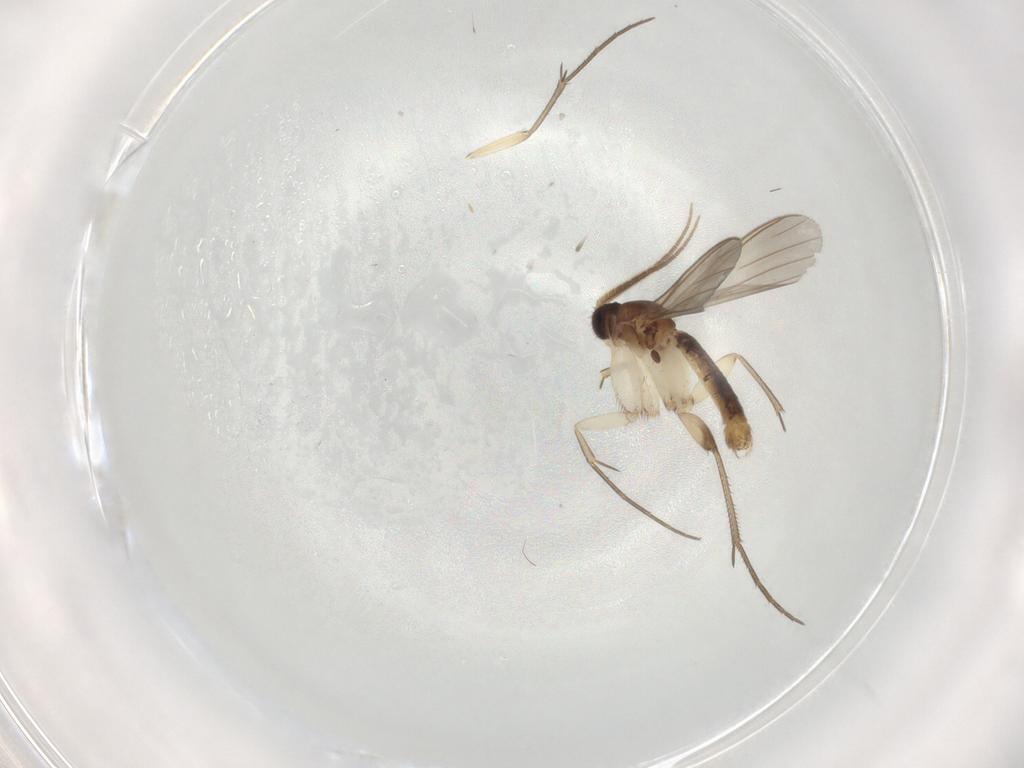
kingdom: Animalia
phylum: Arthropoda
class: Insecta
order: Diptera
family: Mycetophilidae
